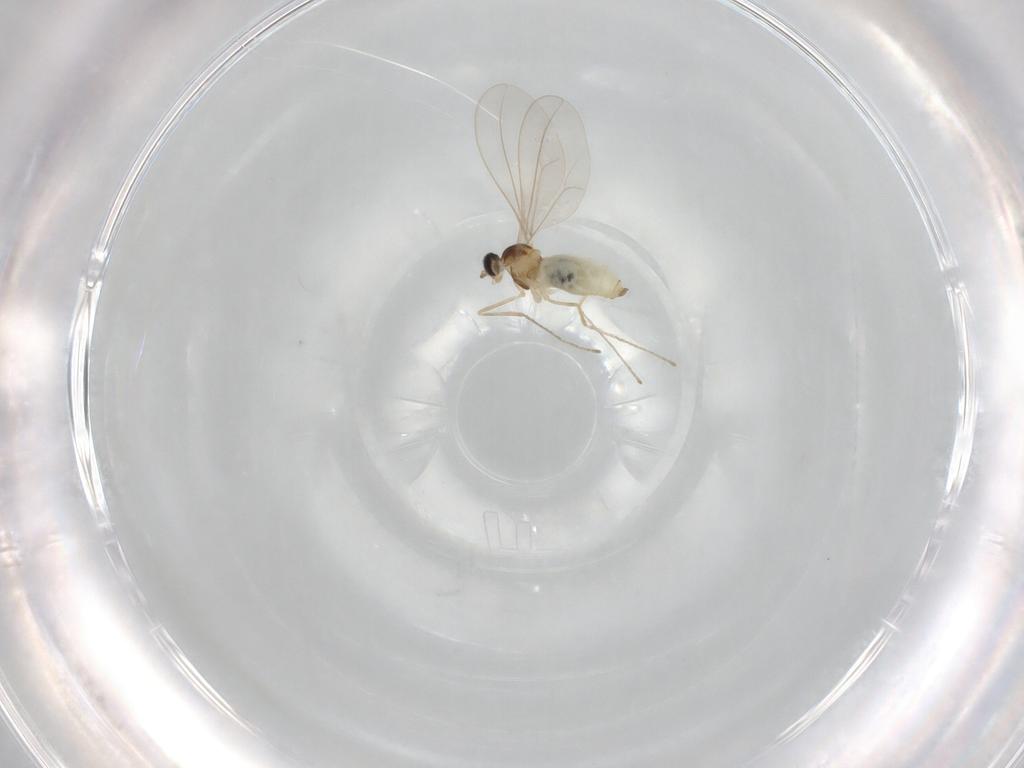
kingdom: Animalia
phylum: Arthropoda
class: Insecta
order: Diptera
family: Cecidomyiidae
